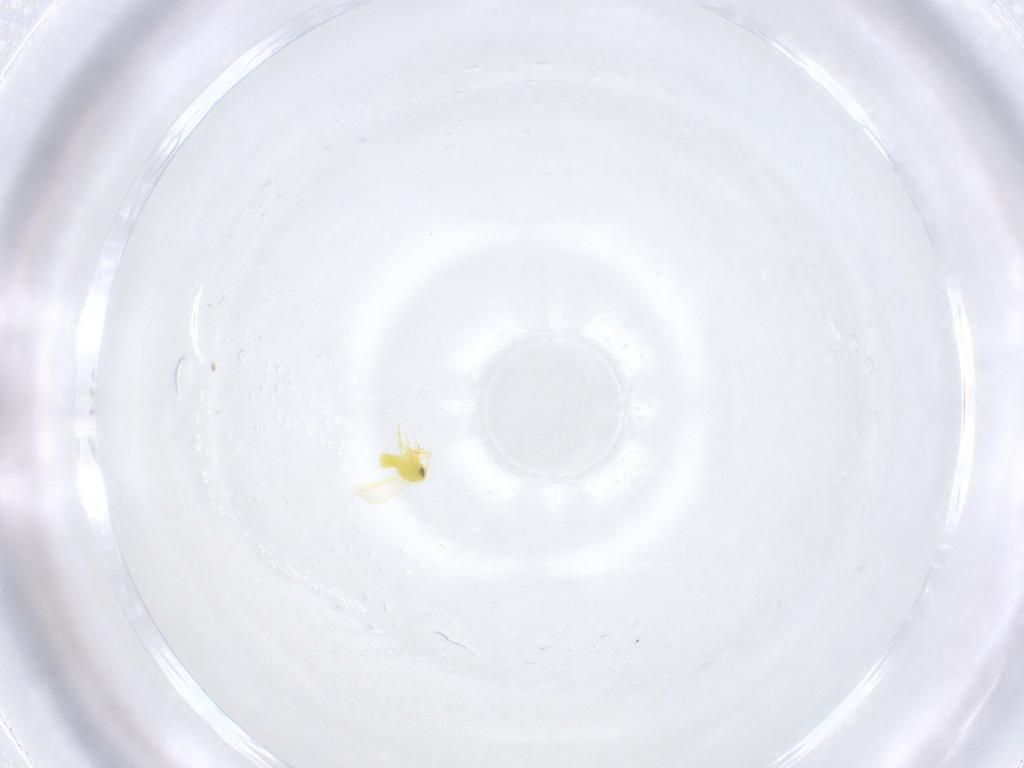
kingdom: Animalia
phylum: Arthropoda
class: Insecta
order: Hemiptera
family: Aleyrodidae
